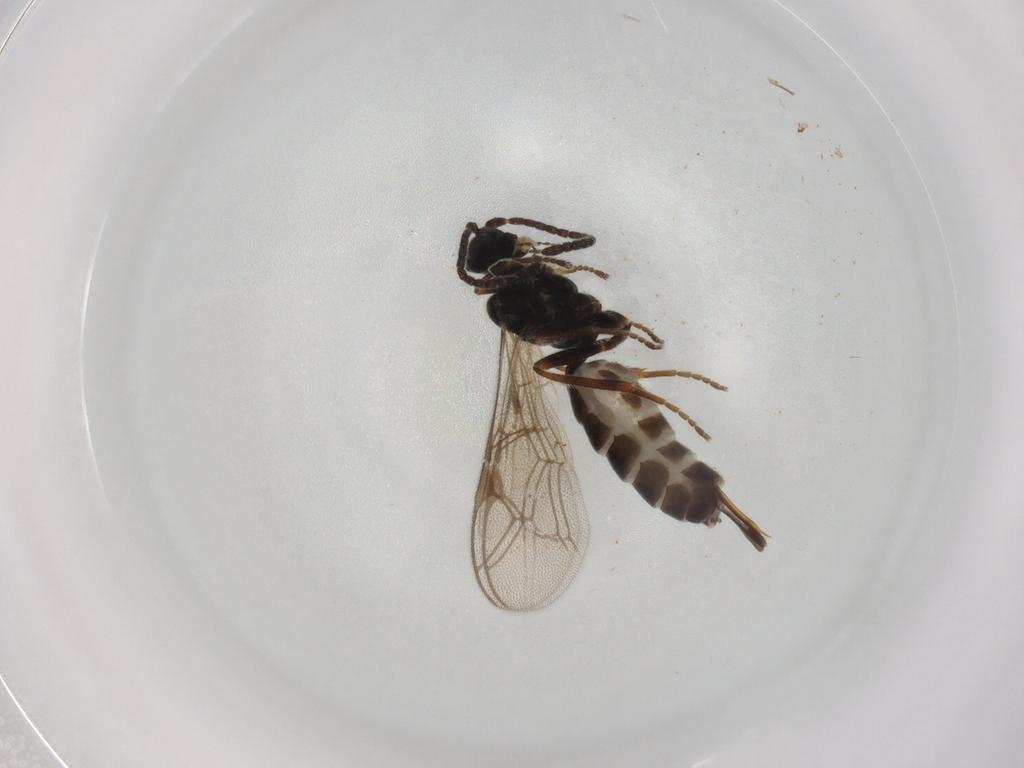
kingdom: Animalia
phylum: Arthropoda
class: Insecta
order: Hymenoptera
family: Ichneumonidae
